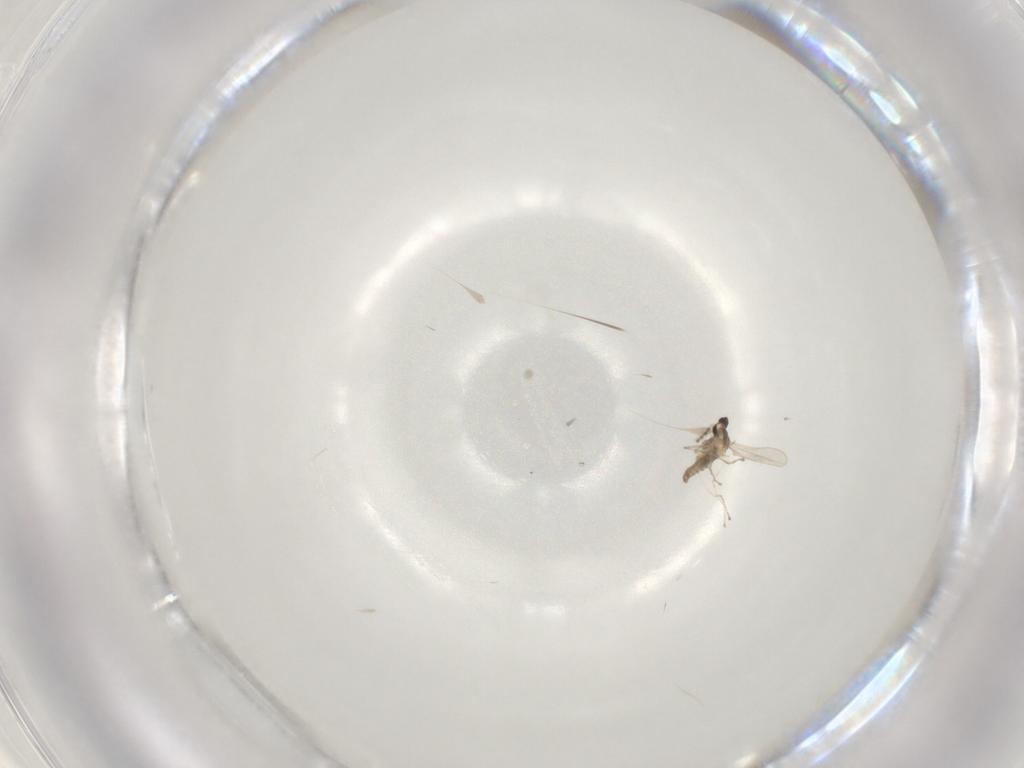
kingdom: Animalia
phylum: Arthropoda
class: Insecta
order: Diptera
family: Cecidomyiidae
